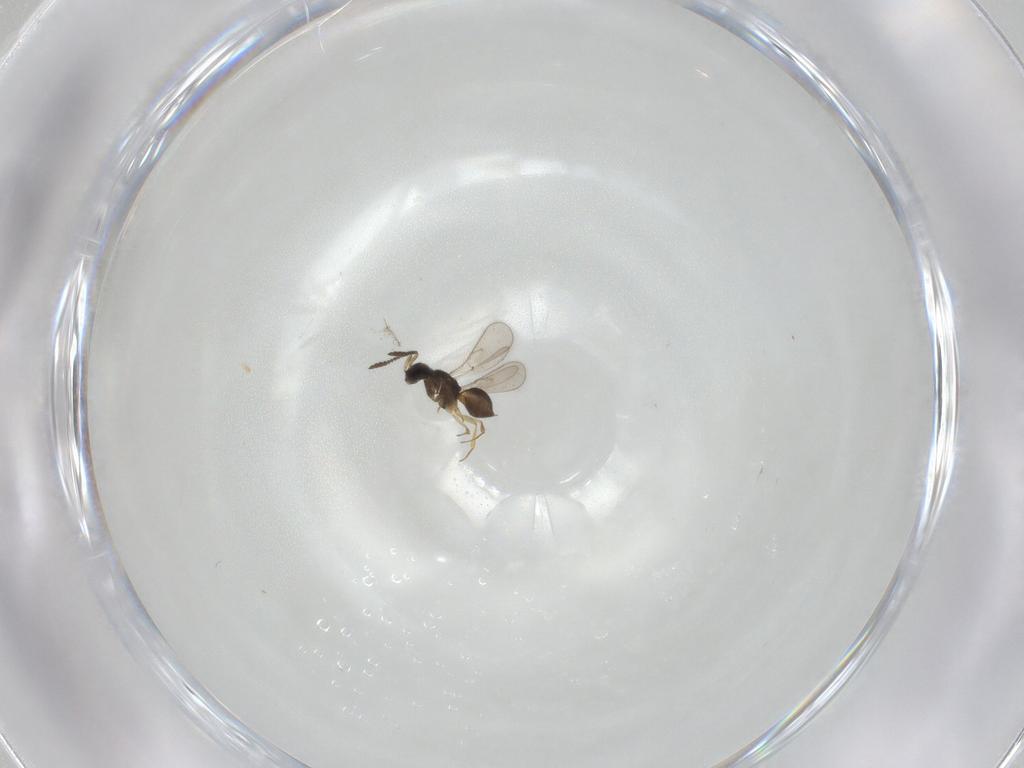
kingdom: Animalia
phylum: Arthropoda
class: Insecta
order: Hymenoptera
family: Scelionidae
